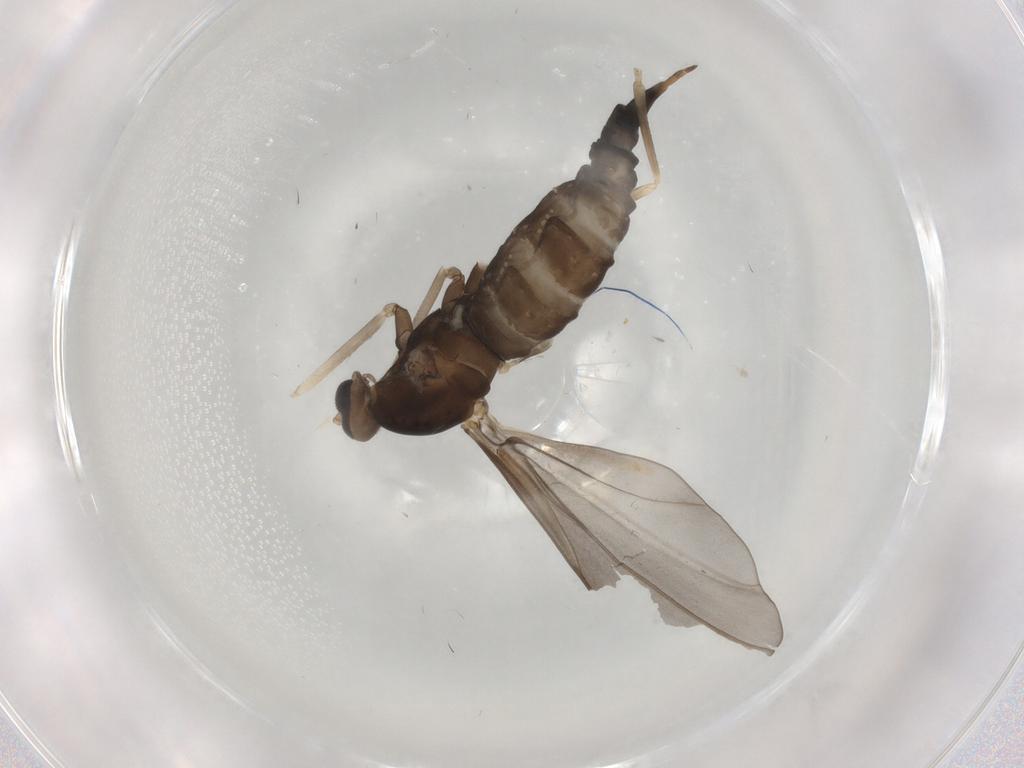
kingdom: Animalia
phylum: Arthropoda
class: Insecta
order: Diptera
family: Cecidomyiidae
